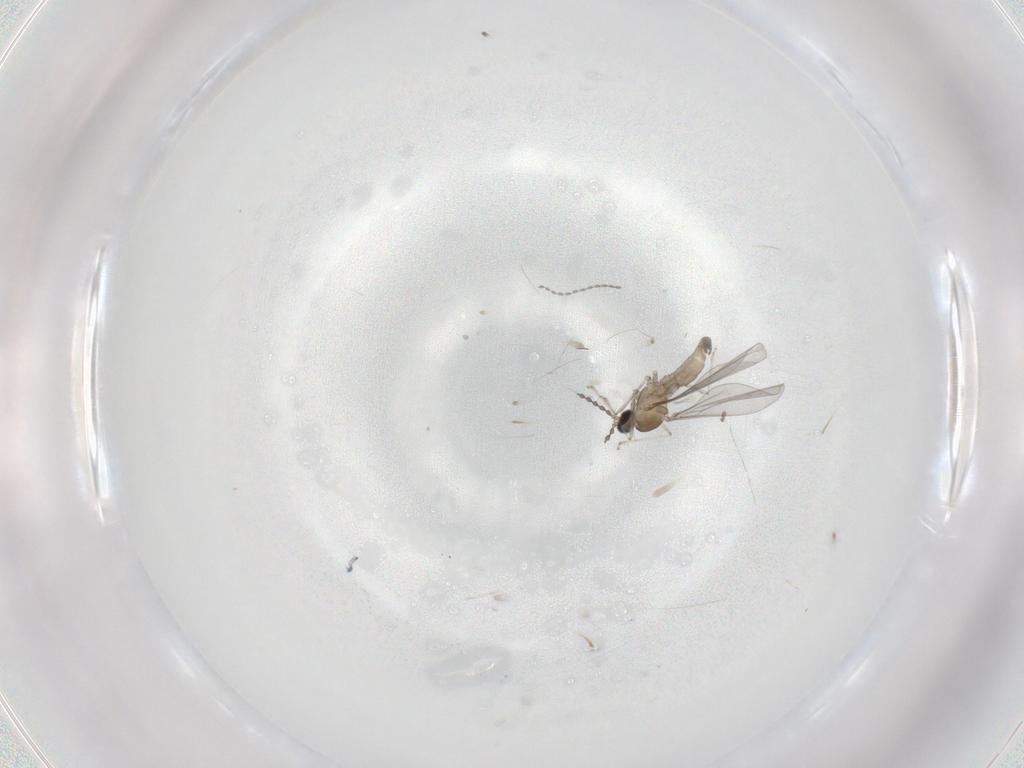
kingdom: Animalia
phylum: Arthropoda
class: Insecta
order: Diptera
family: Cecidomyiidae
